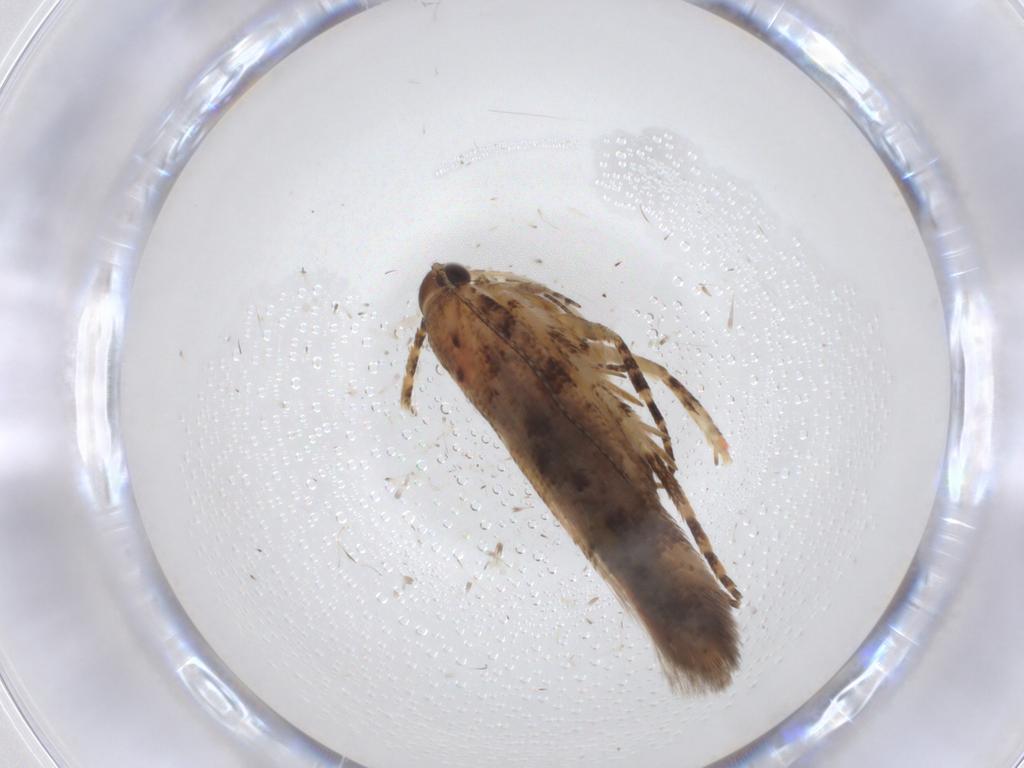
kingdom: Animalia
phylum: Arthropoda
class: Insecta
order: Lepidoptera
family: Gelechiidae
